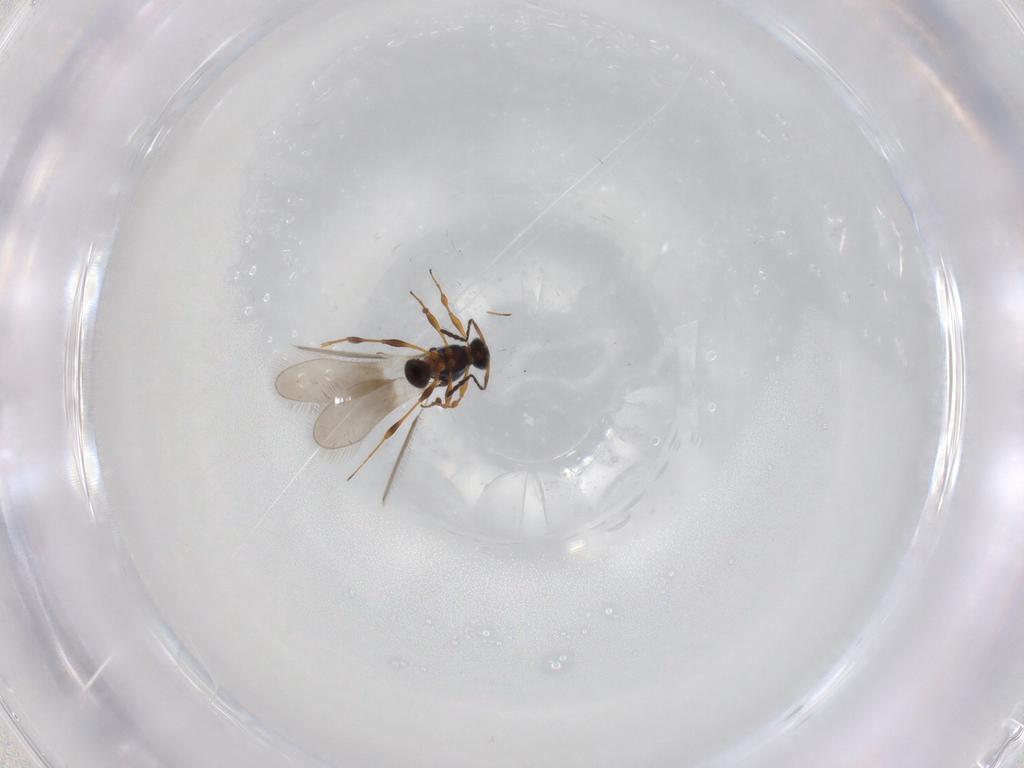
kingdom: Animalia
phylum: Arthropoda
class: Insecta
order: Hymenoptera
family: Platygastridae
